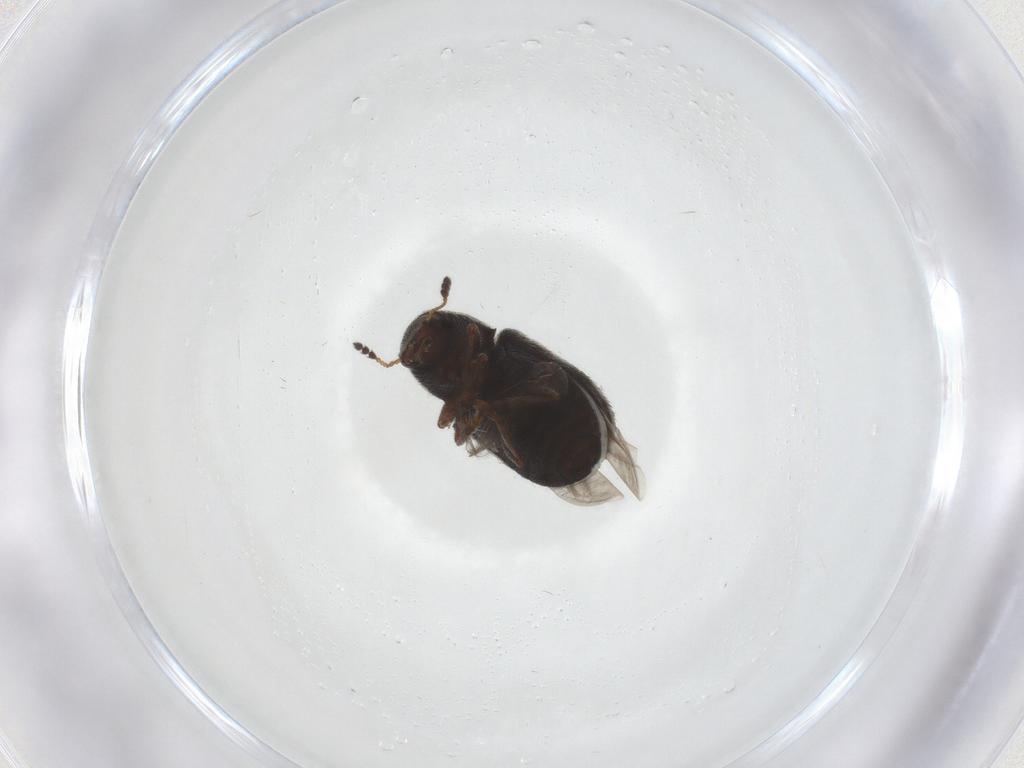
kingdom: Animalia
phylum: Arthropoda
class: Insecta
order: Coleoptera
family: Anthribidae
